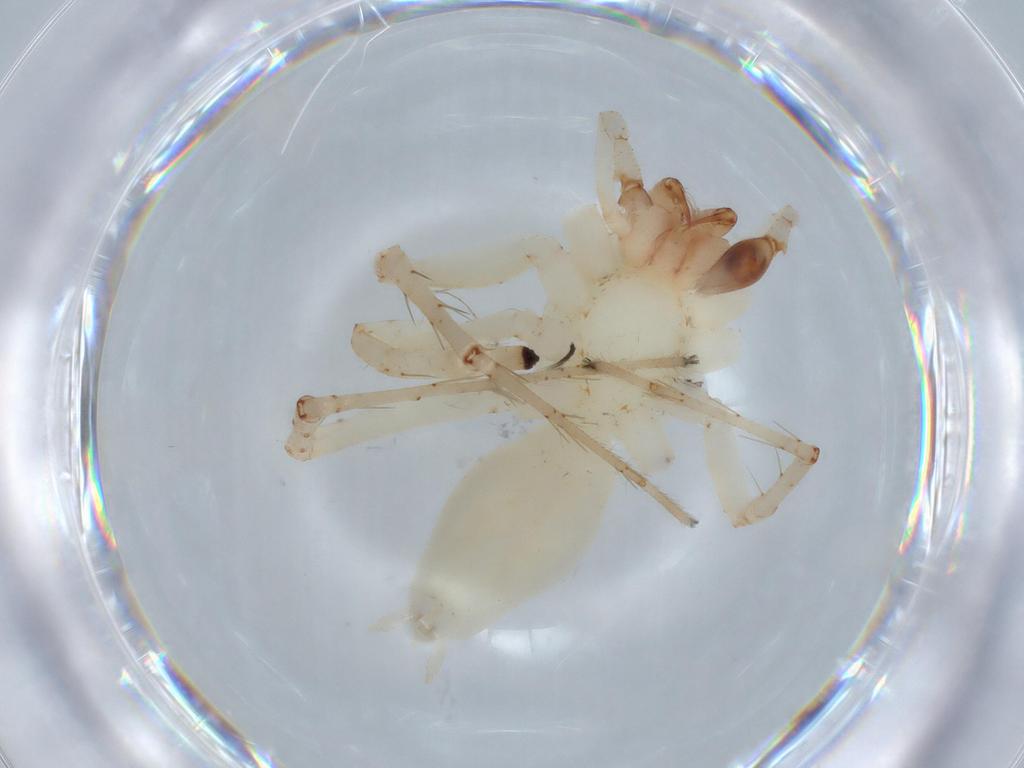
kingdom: Animalia
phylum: Arthropoda
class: Arachnida
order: Araneae
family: Anyphaenidae
